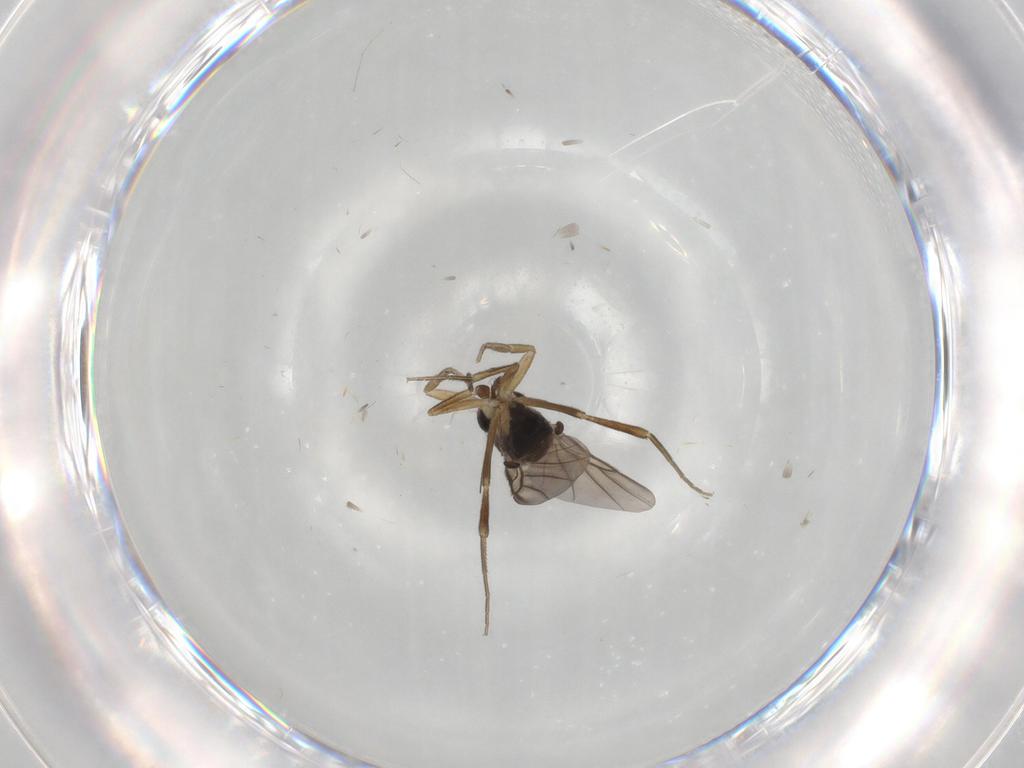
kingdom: Animalia
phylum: Arthropoda
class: Insecta
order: Diptera
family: Phoridae
